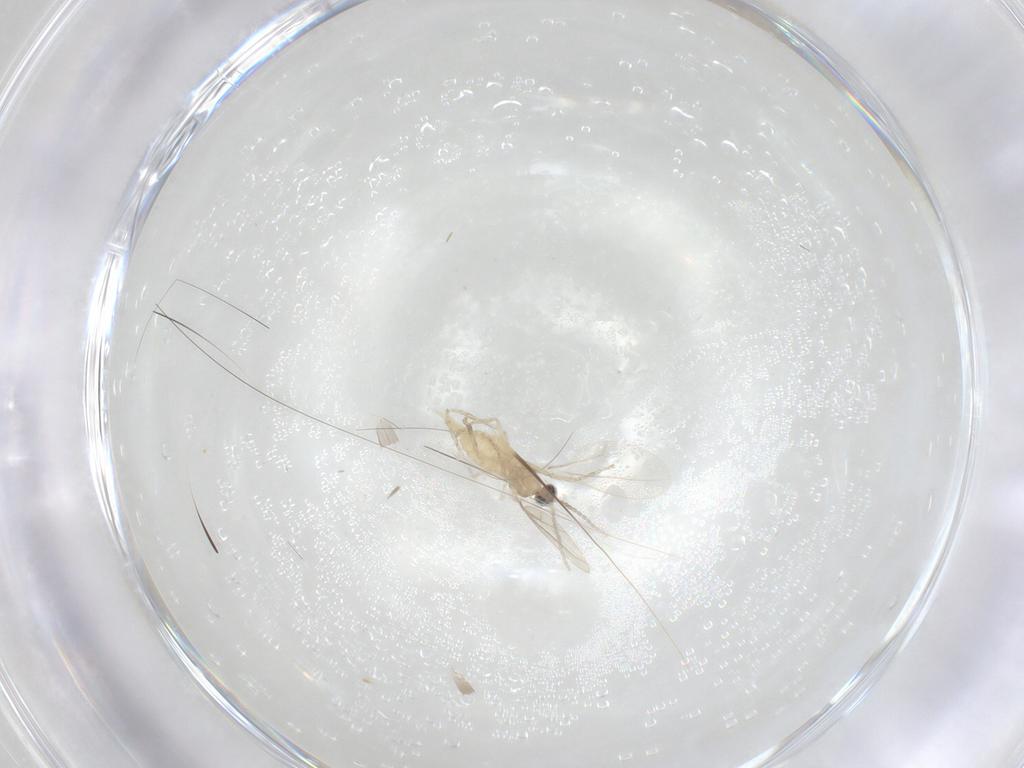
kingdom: Animalia
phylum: Arthropoda
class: Insecta
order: Diptera
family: Cecidomyiidae
